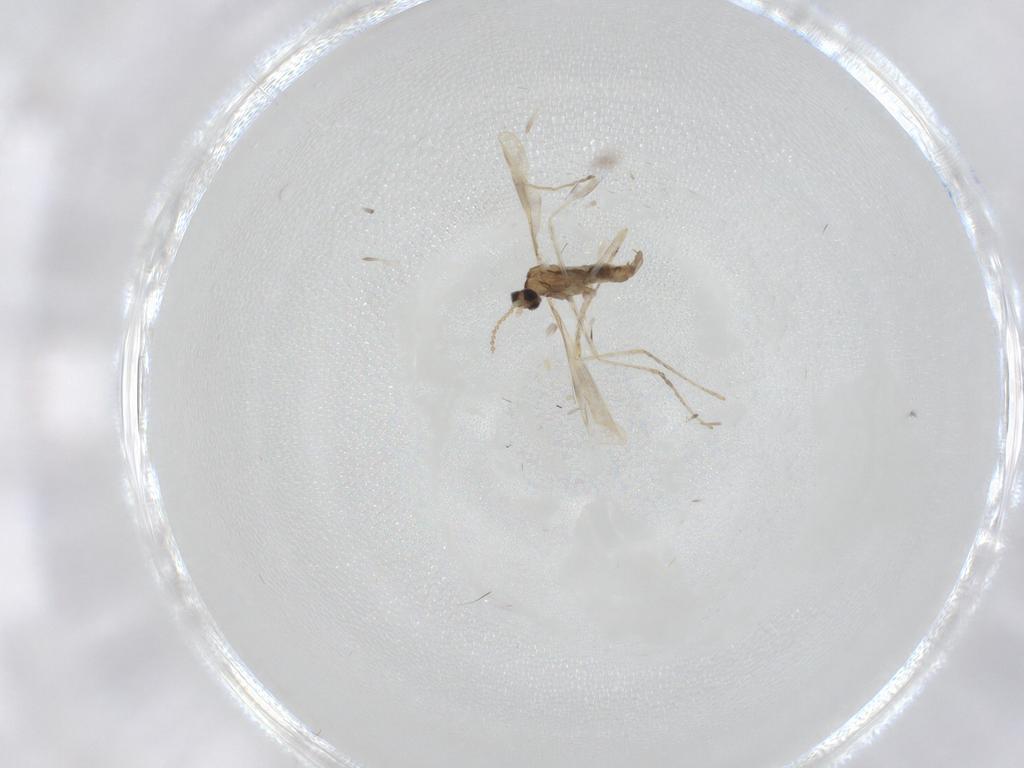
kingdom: Animalia
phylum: Arthropoda
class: Insecta
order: Diptera
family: Cecidomyiidae
